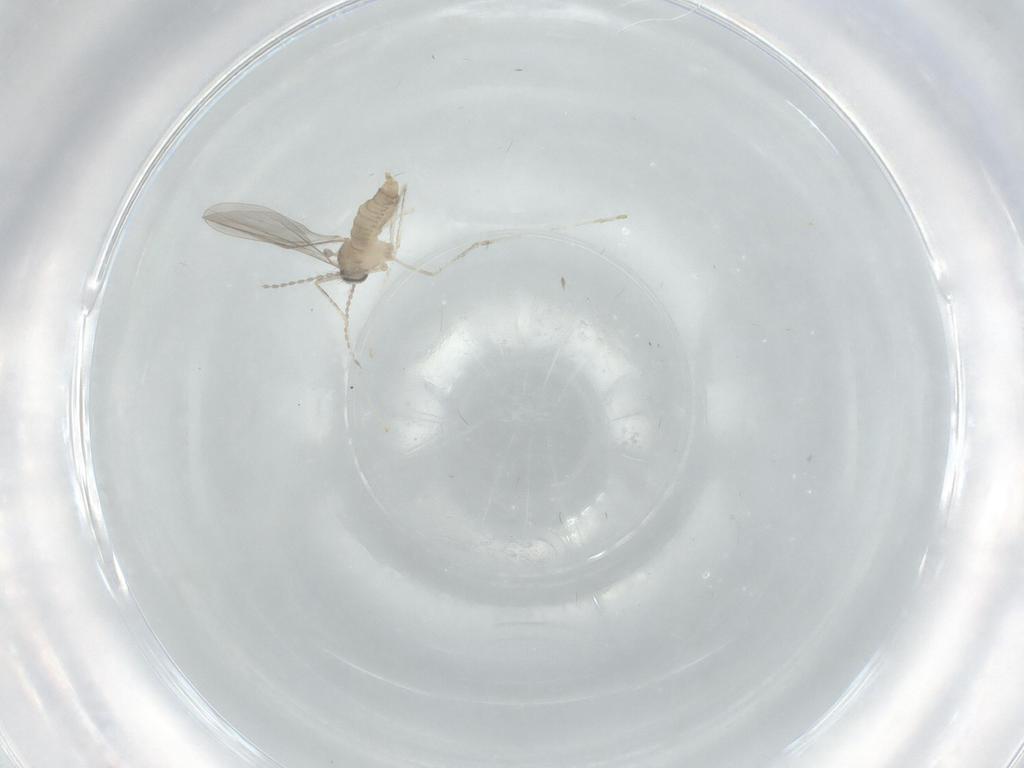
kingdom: Animalia
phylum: Arthropoda
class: Insecta
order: Diptera
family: Cecidomyiidae
